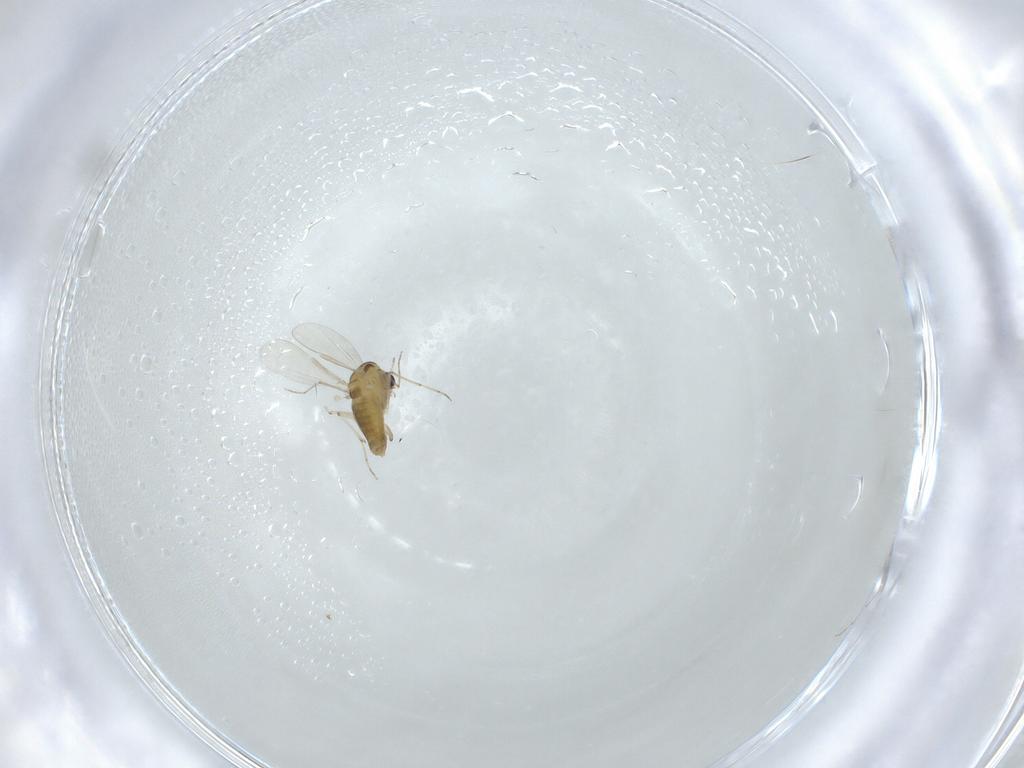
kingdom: Animalia
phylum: Arthropoda
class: Insecta
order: Diptera
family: Chironomidae
